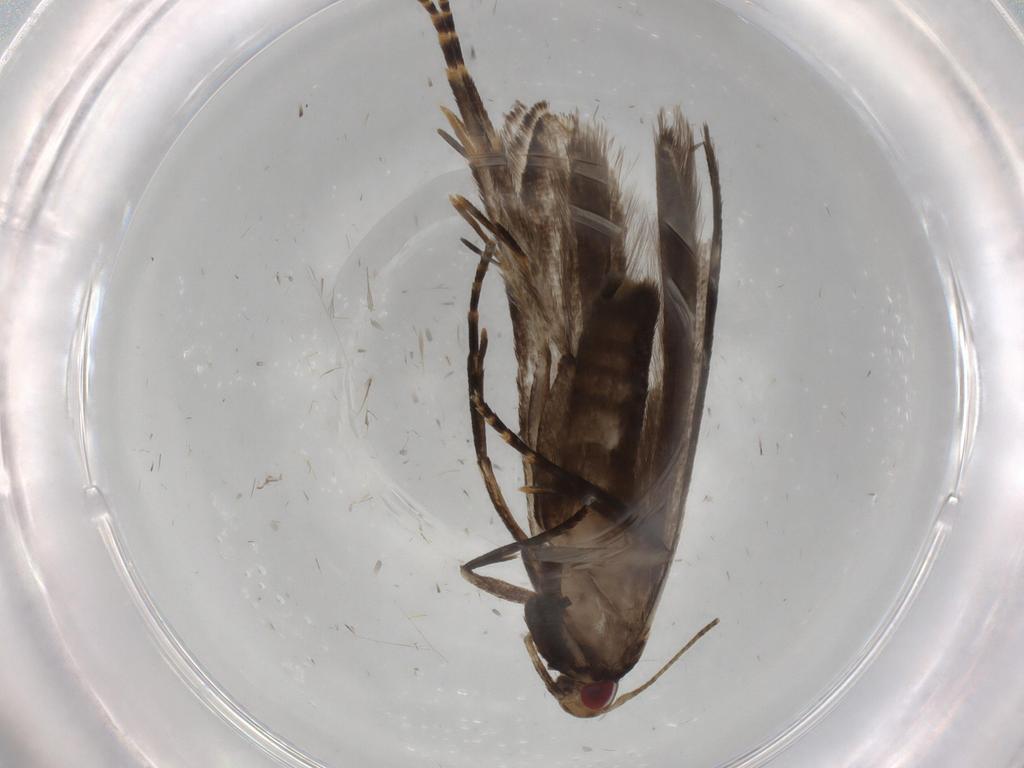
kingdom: Animalia
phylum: Arthropoda
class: Insecta
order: Lepidoptera
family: Gelechiidae
